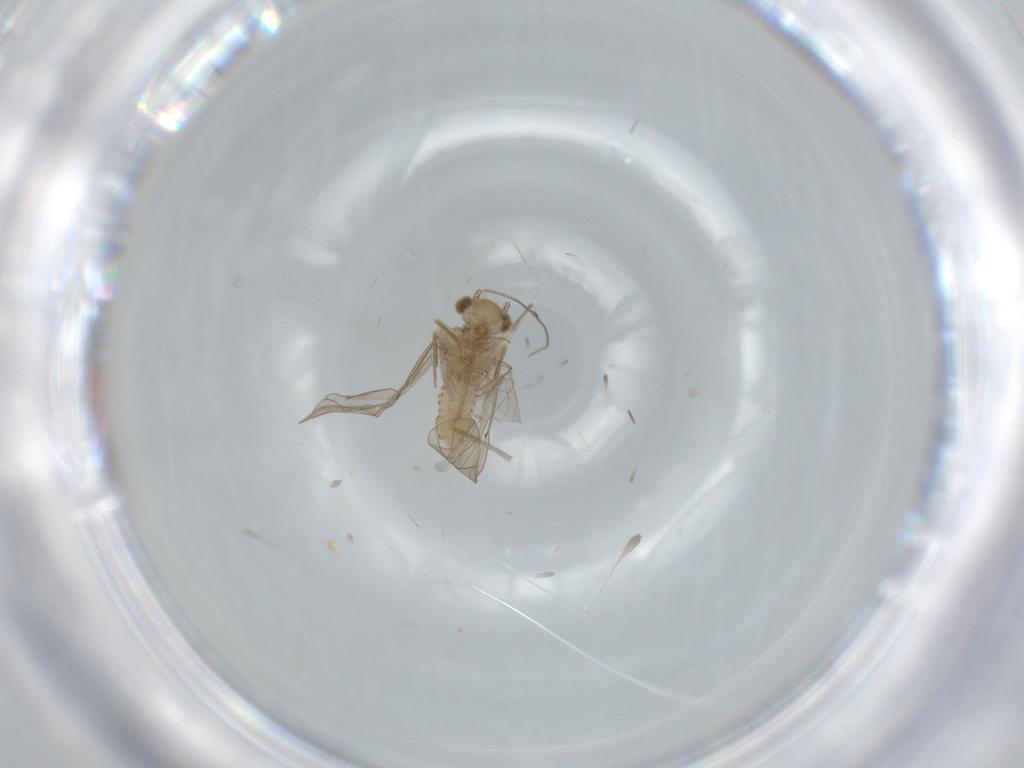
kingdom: Animalia
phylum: Arthropoda
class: Insecta
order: Psocodea
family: Lachesillidae
